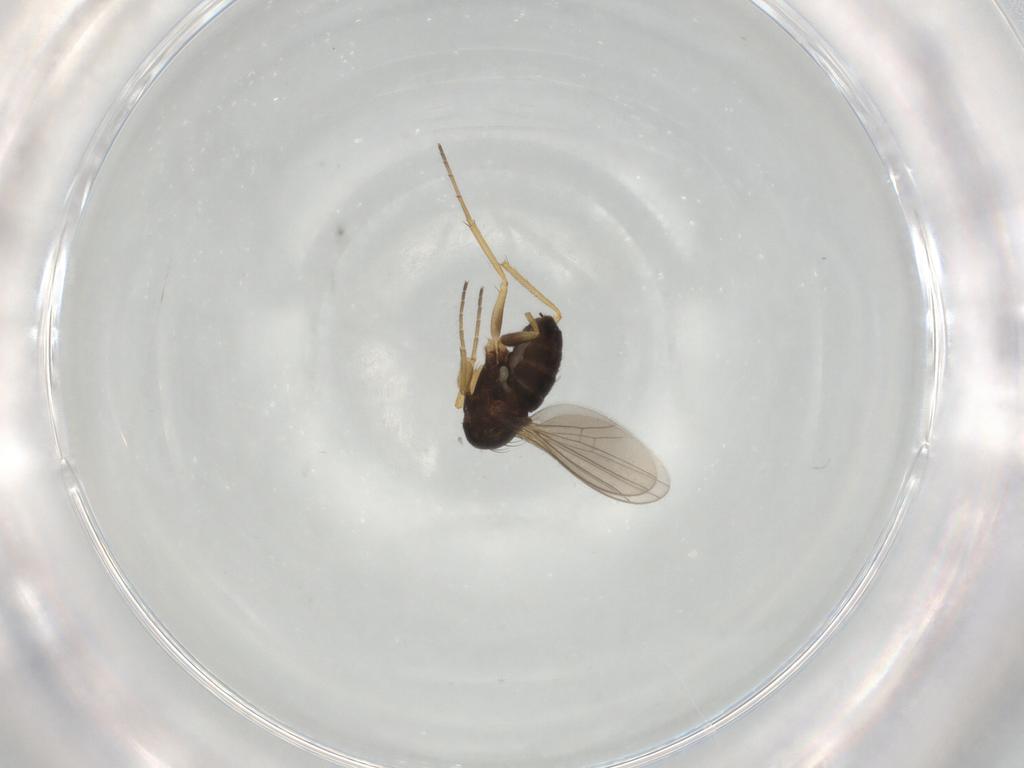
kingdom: Animalia
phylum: Arthropoda
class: Insecta
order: Diptera
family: Dolichopodidae
